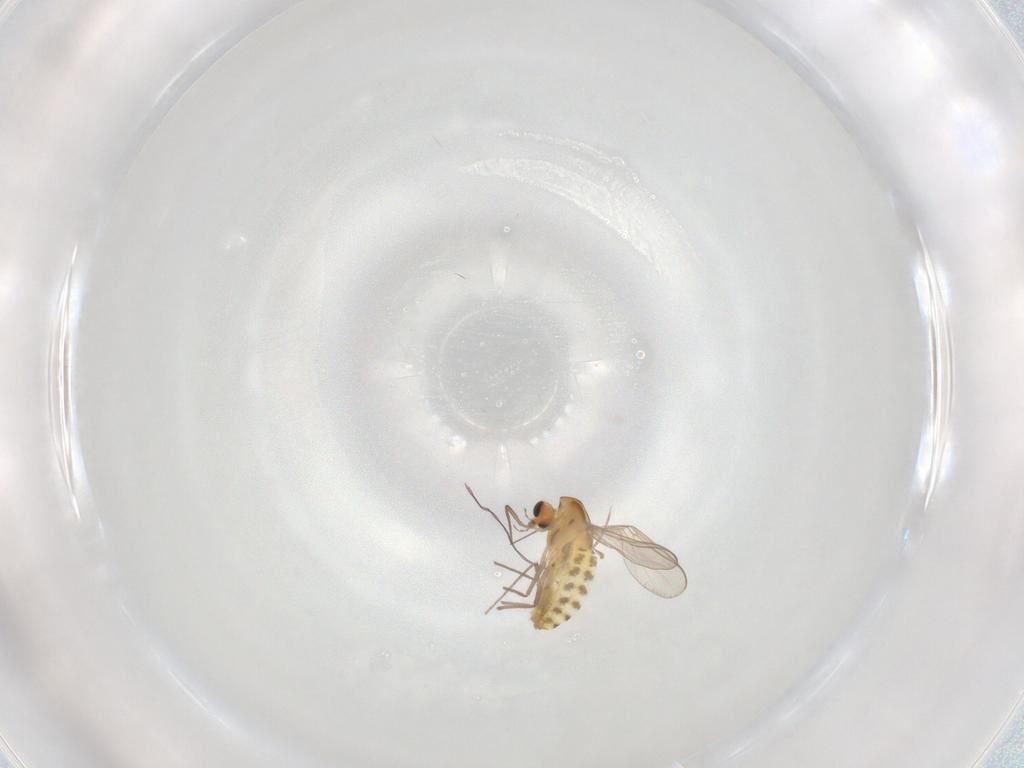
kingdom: Animalia
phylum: Arthropoda
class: Insecta
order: Diptera
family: Chironomidae
